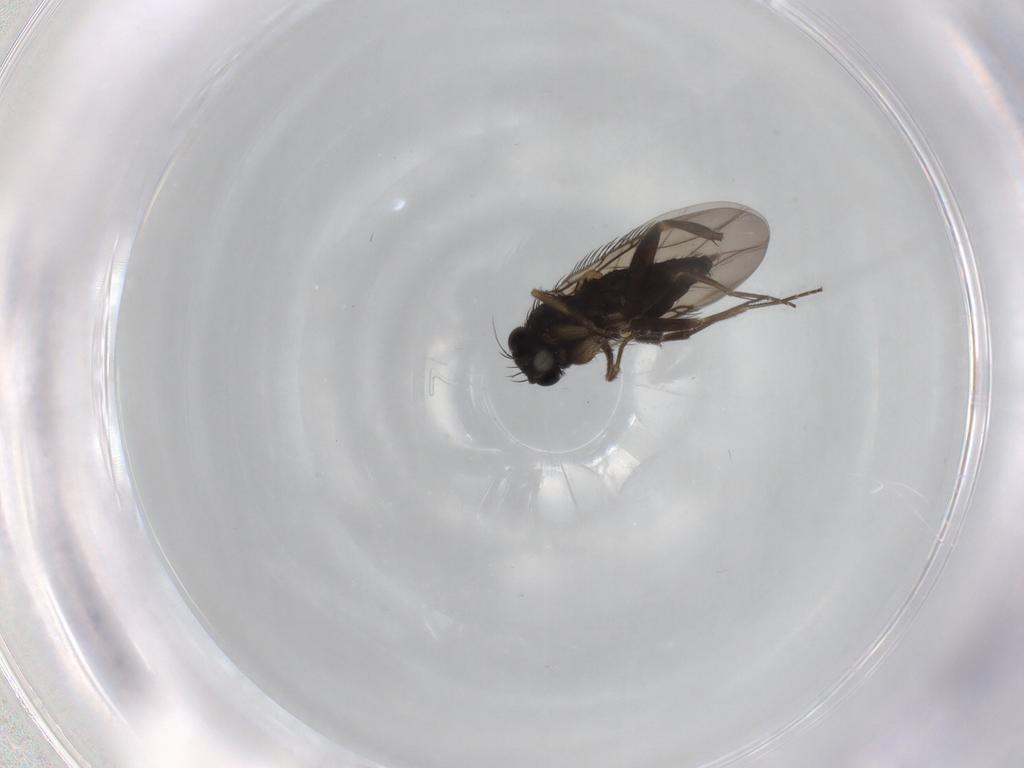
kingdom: Animalia
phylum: Arthropoda
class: Insecta
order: Diptera
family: Phoridae
